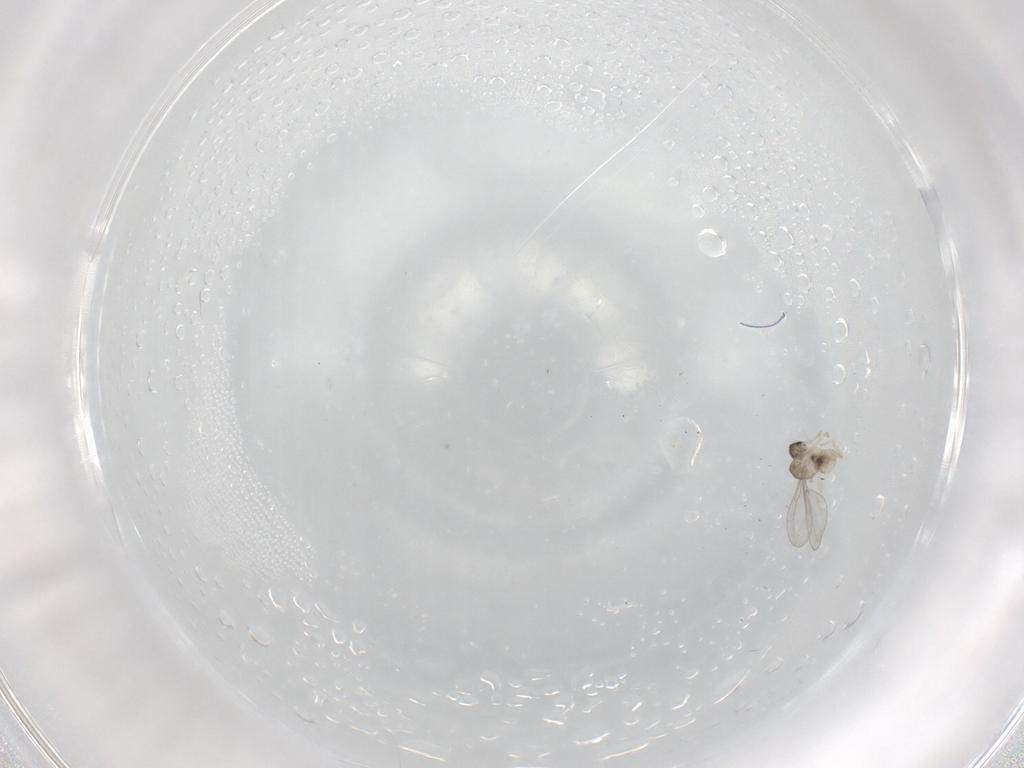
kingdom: Animalia
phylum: Arthropoda
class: Insecta
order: Diptera
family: Cecidomyiidae
